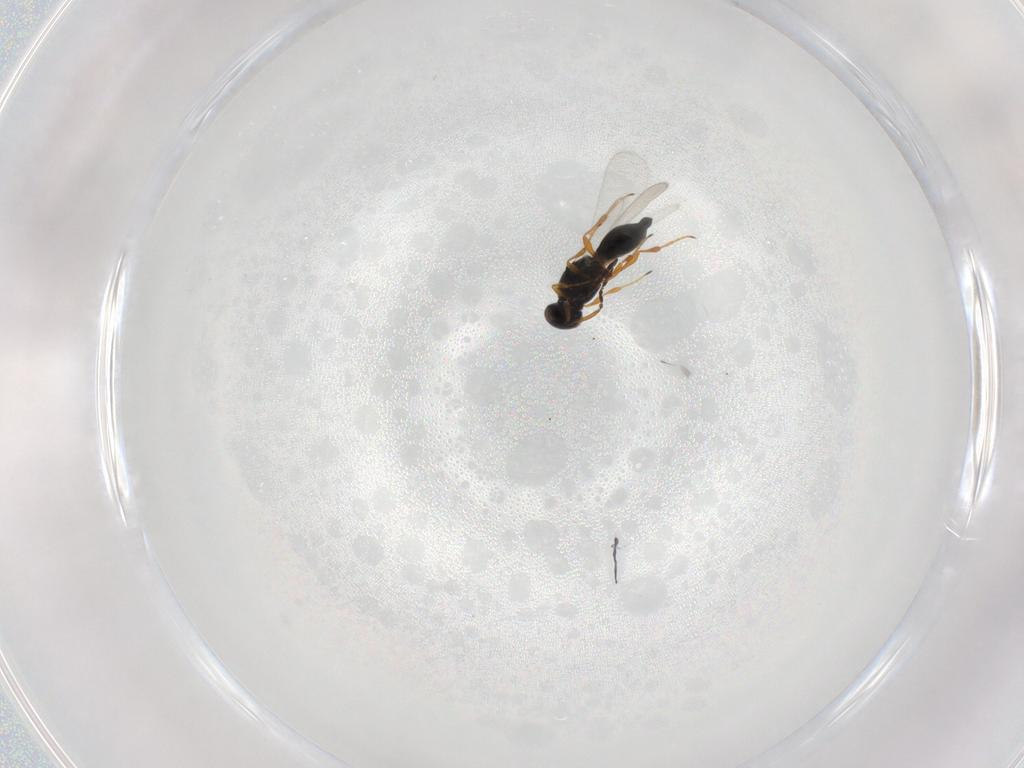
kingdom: Animalia
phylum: Arthropoda
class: Insecta
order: Hymenoptera
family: Platygastridae
